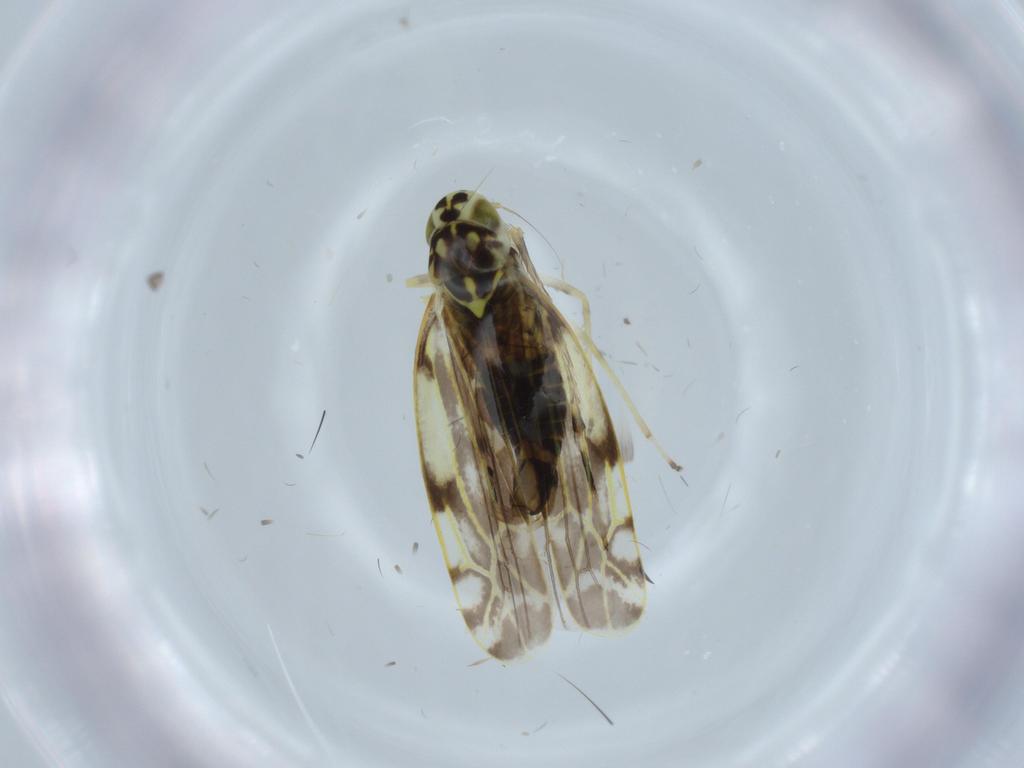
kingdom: Animalia
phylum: Arthropoda
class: Insecta
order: Hemiptera
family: Cicadellidae
